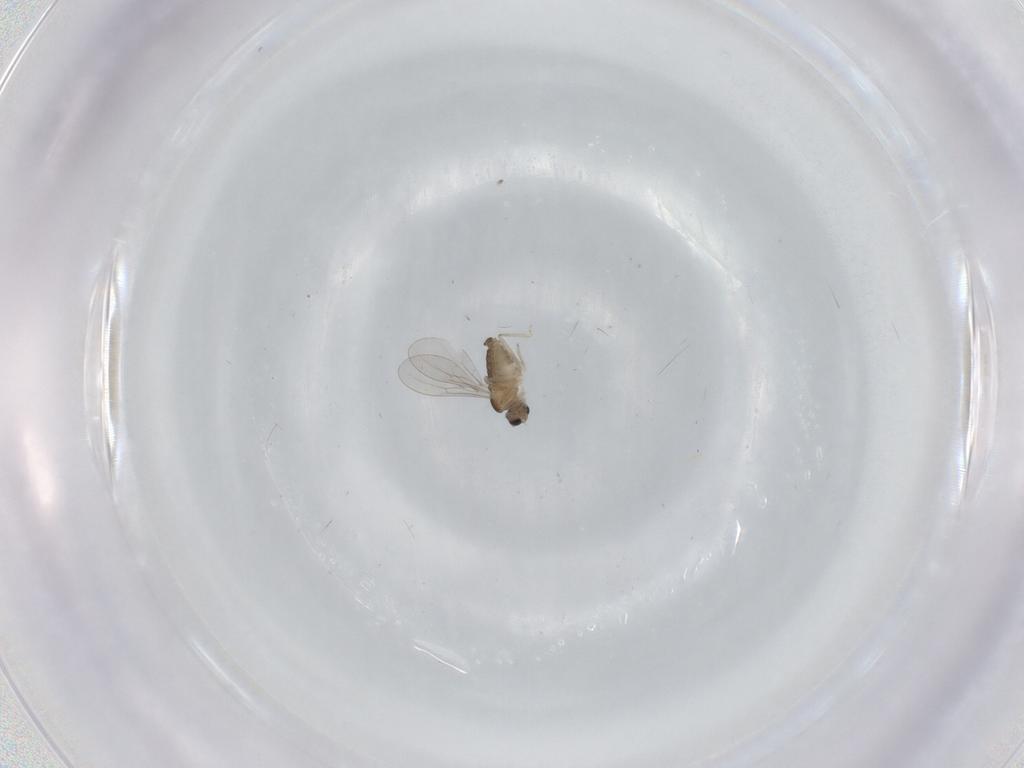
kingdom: Animalia
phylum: Arthropoda
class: Insecta
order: Diptera
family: Cecidomyiidae
